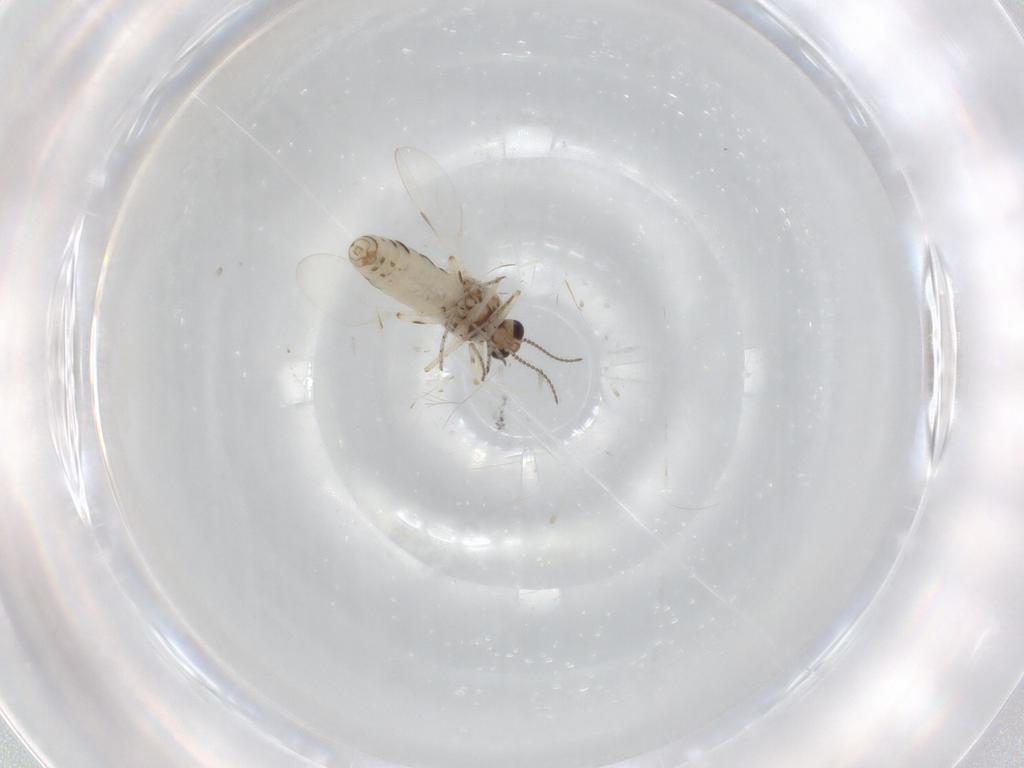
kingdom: Animalia
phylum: Arthropoda
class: Insecta
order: Diptera
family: Ceratopogonidae
